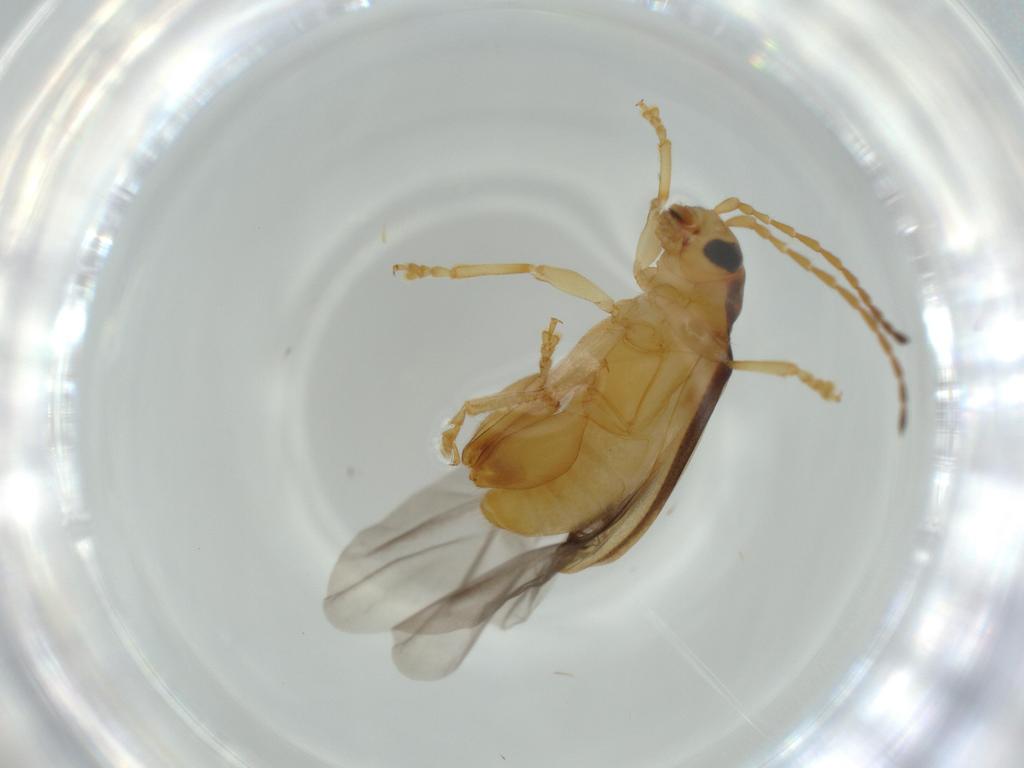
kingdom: Animalia
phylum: Arthropoda
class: Insecta
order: Coleoptera
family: Chrysomelidae
